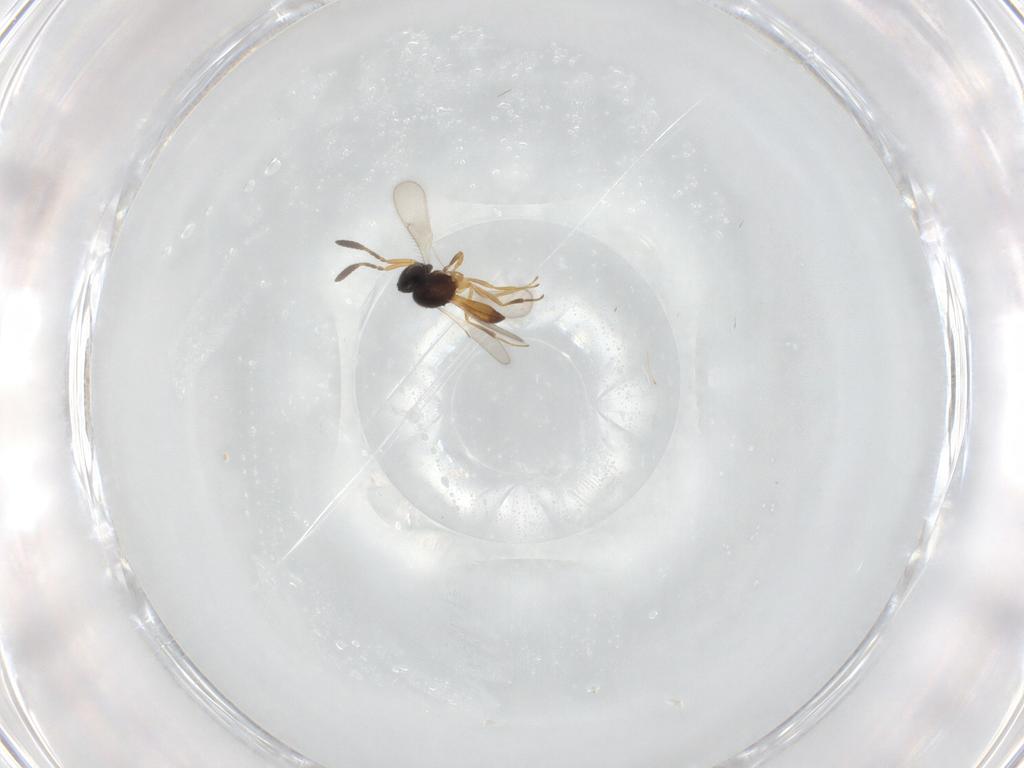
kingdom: Animalia
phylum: Arthropoda
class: Insecta
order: Hymenoptera
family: Scelionidae
